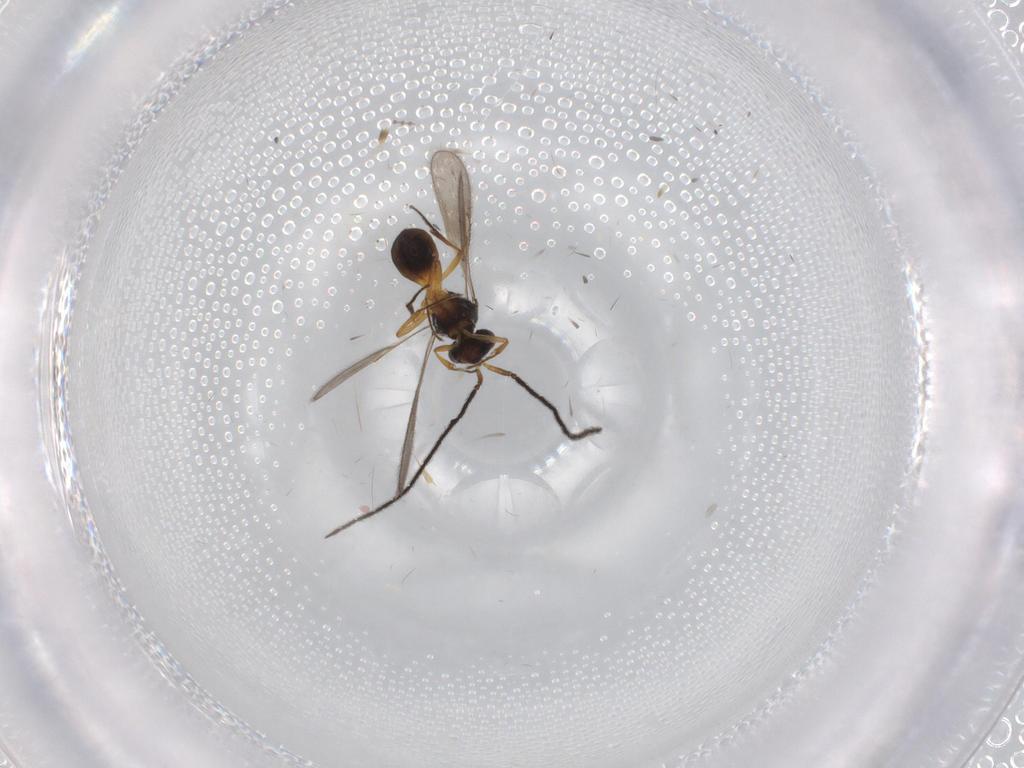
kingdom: Animalia
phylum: Arthropoda
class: Insecta
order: Hymenoptera
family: Scelionidae
